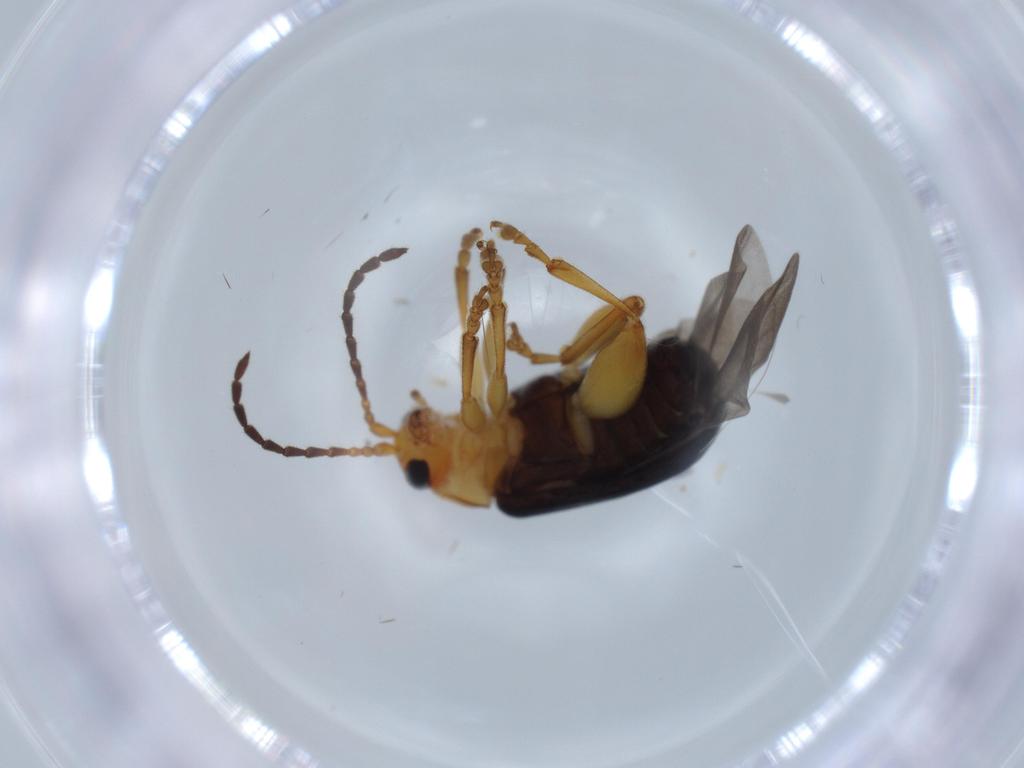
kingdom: Animalia
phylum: Arthropoda
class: Insecta
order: Coleoptera
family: Chrysomelidae
